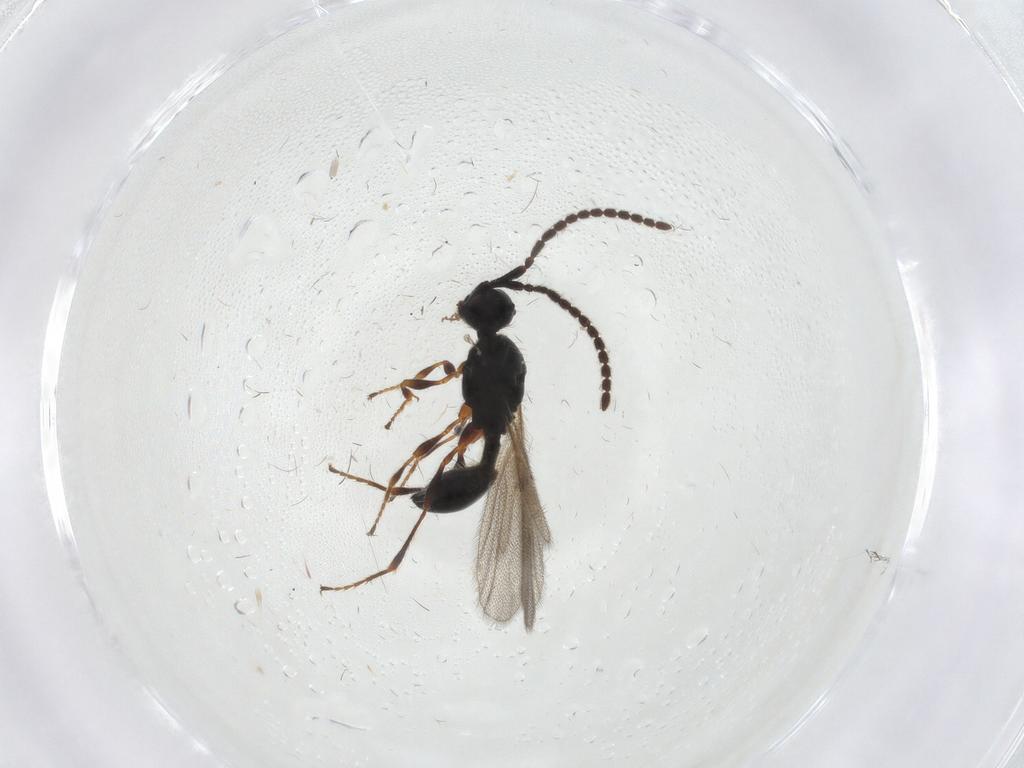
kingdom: Animalia
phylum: Arthropoda
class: Insecta
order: Hymenoptera
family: Diapriidae
